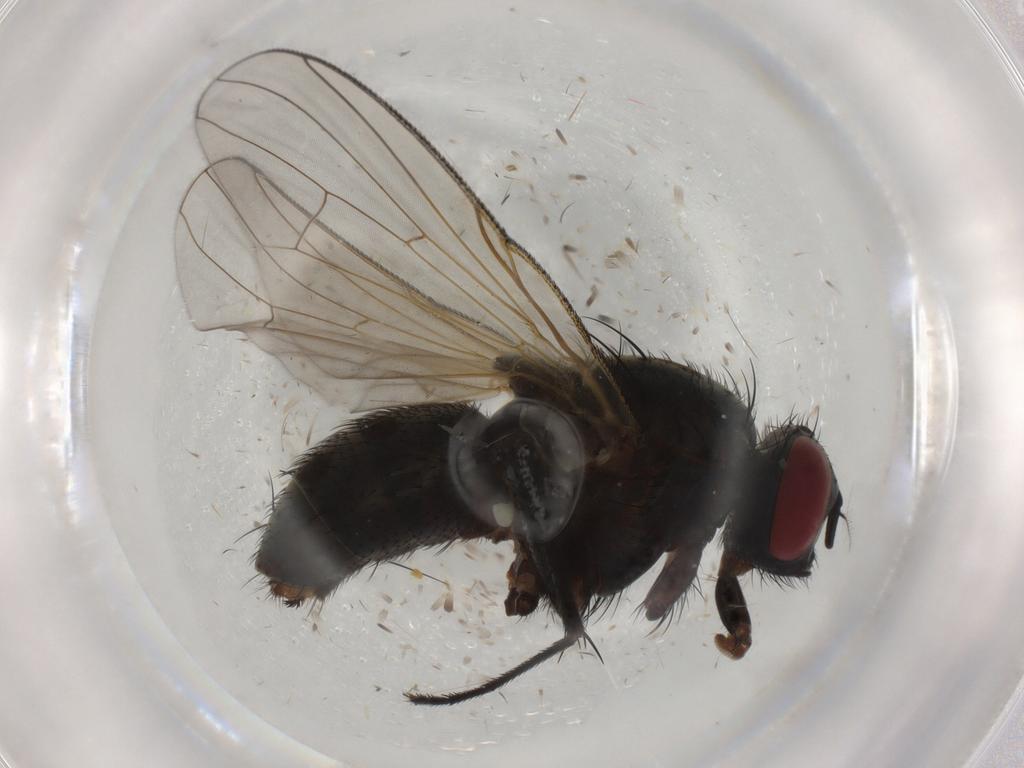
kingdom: Animalia
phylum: Arthropoda
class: Insecta
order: Diptera
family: Muscidae
